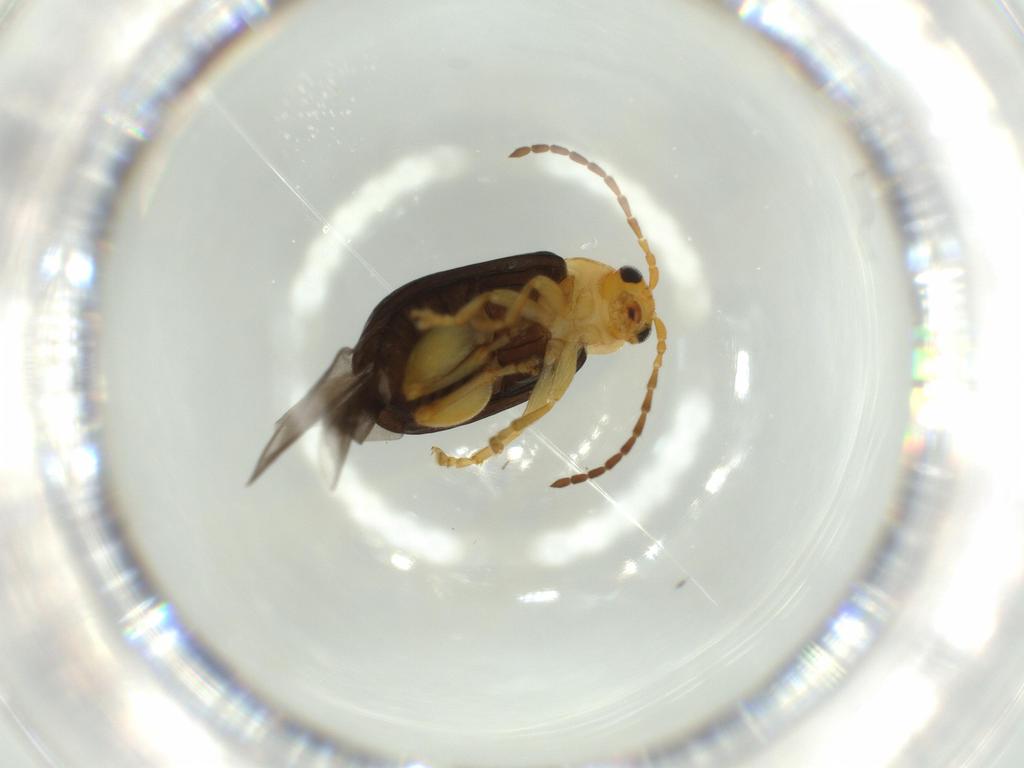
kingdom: Animalia
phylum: Arthropoda
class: Insecta
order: Coleoptera
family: Chrysomelidae
